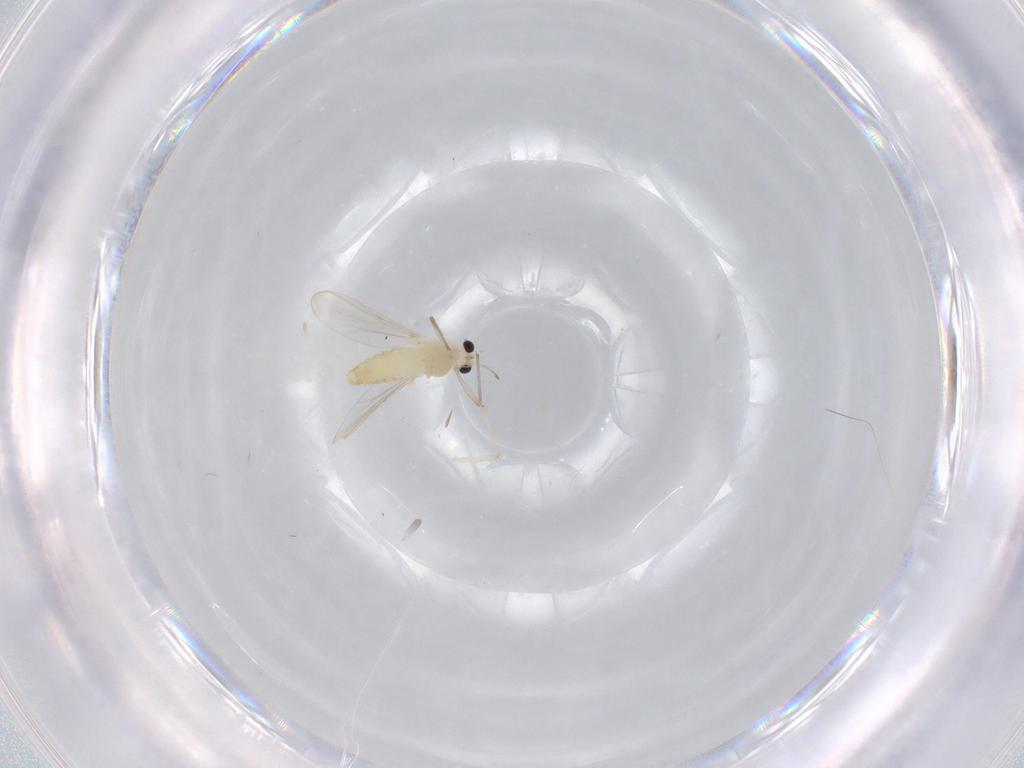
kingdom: Animalia
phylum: Arthropoda
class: Insecta
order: Diptera
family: Chironomidae
